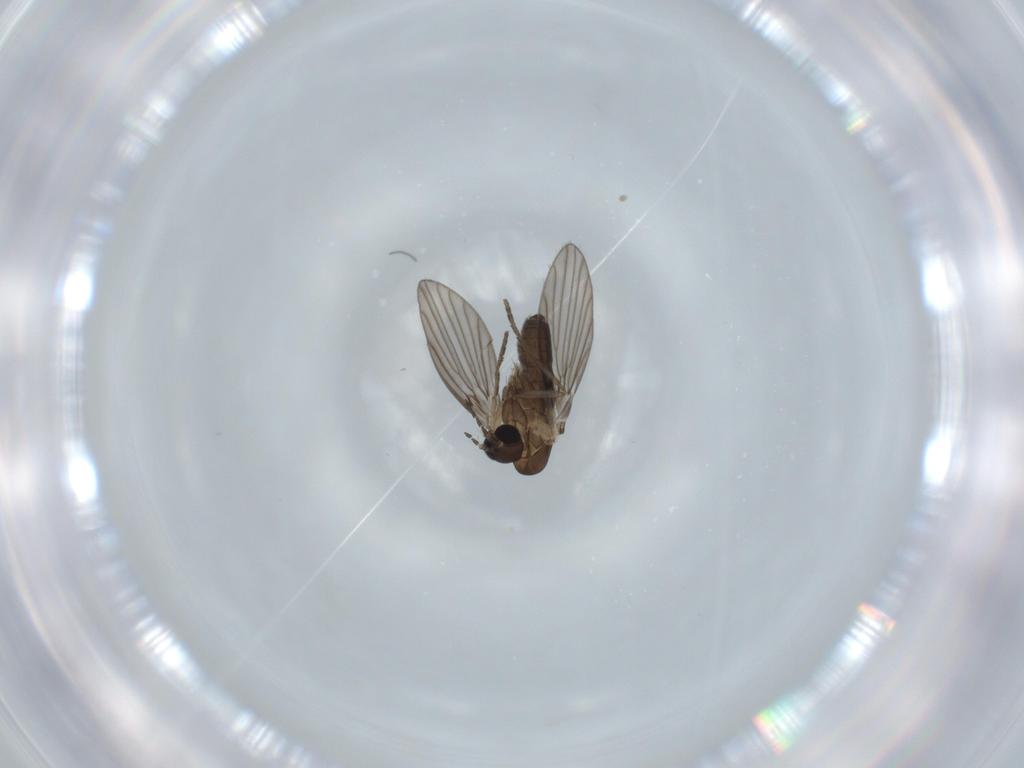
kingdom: Animalia
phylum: Arthropoda
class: Insecta
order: Diptera
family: Psychodidae
